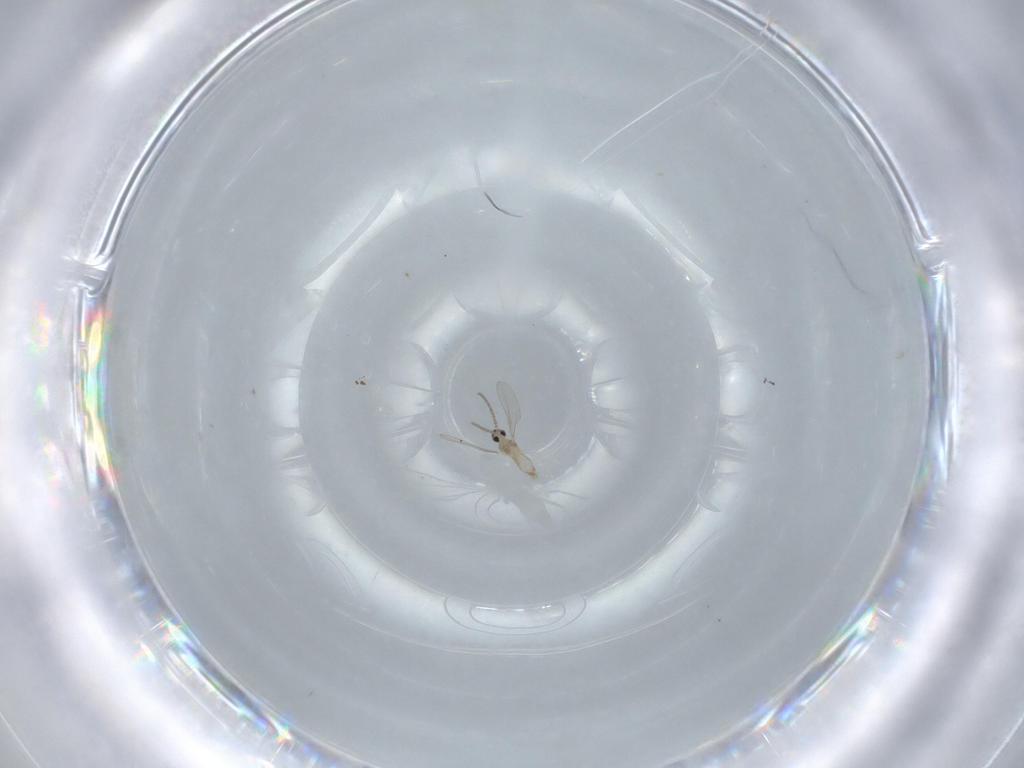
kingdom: Animalia
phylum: Arthropoda
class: Insecta
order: Diptera
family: Cecidomyiidae
